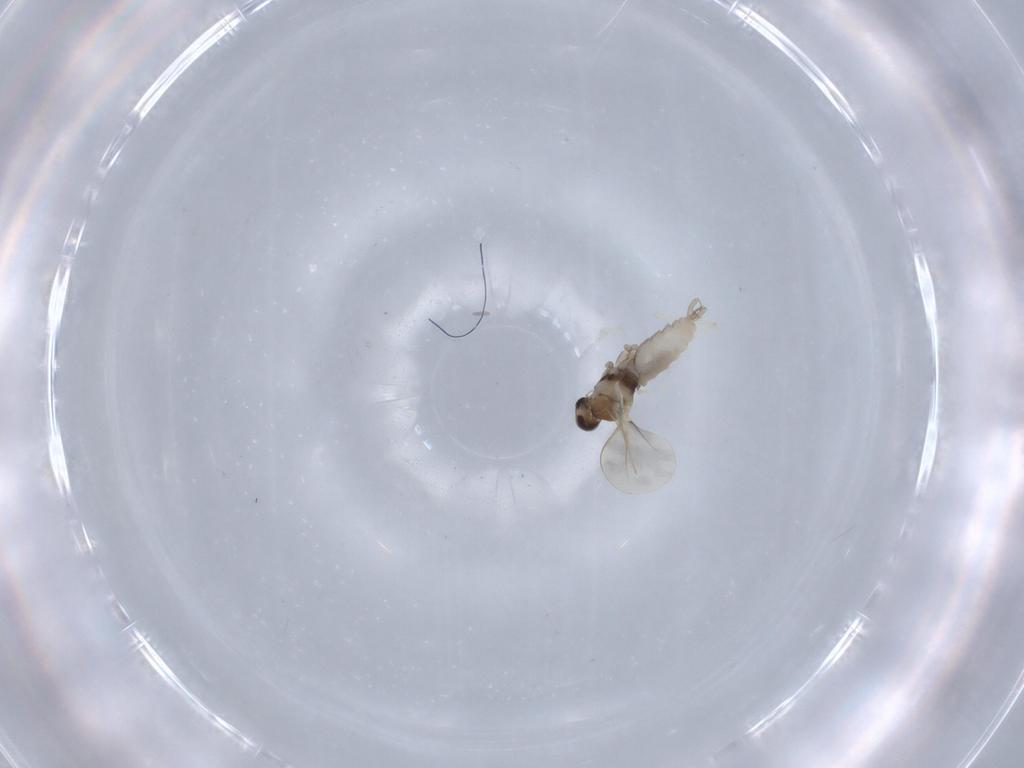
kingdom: Animalia
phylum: Arthropoda
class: Insecta
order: Diptera
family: Cecidomyiidae
